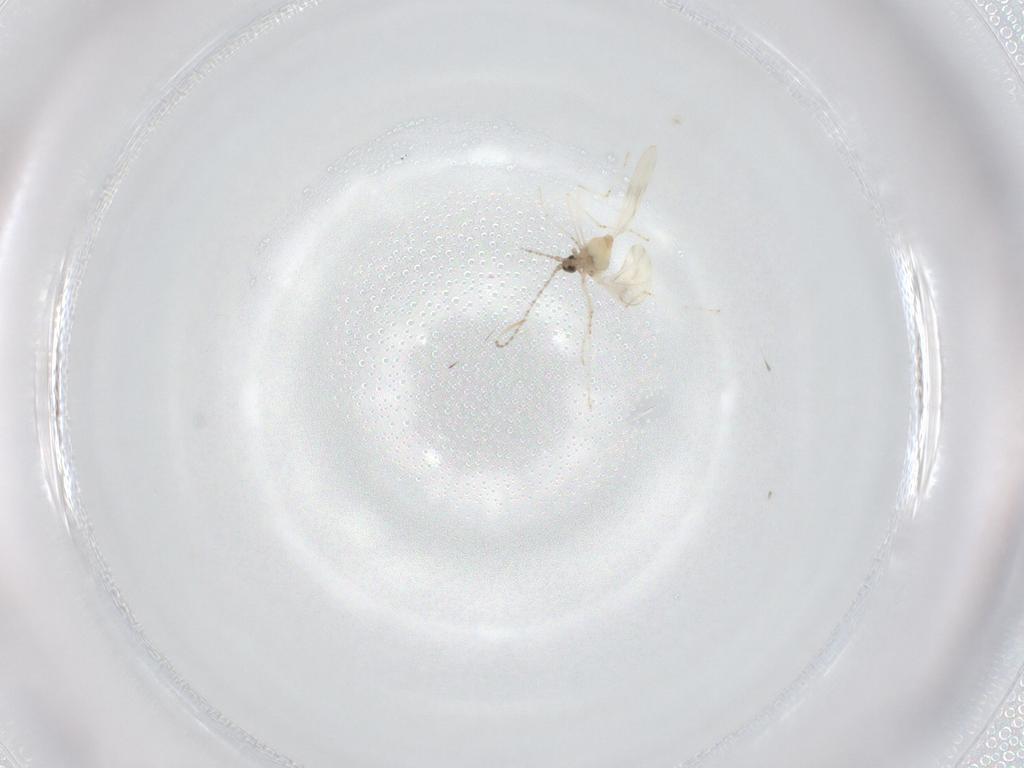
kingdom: Animalia
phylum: Arthropoda
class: Insecta
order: Diptera
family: Cecidomyiidae
